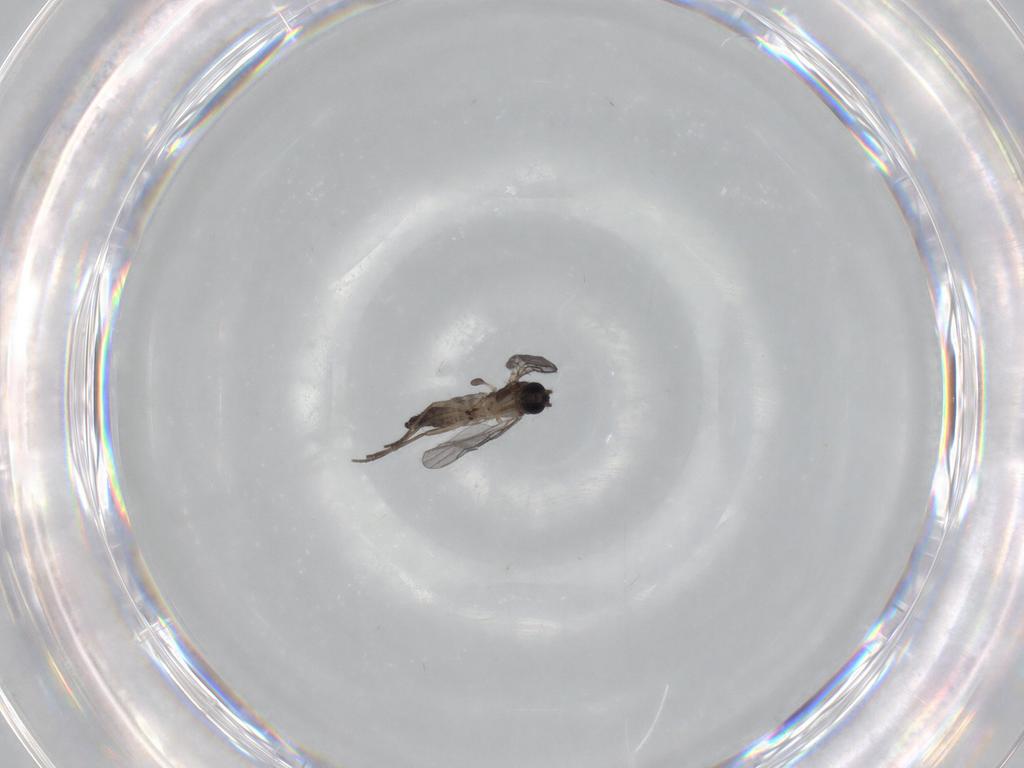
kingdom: Animalia
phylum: Arthropoda
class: Insecta
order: Diptera
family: Sciaridae
